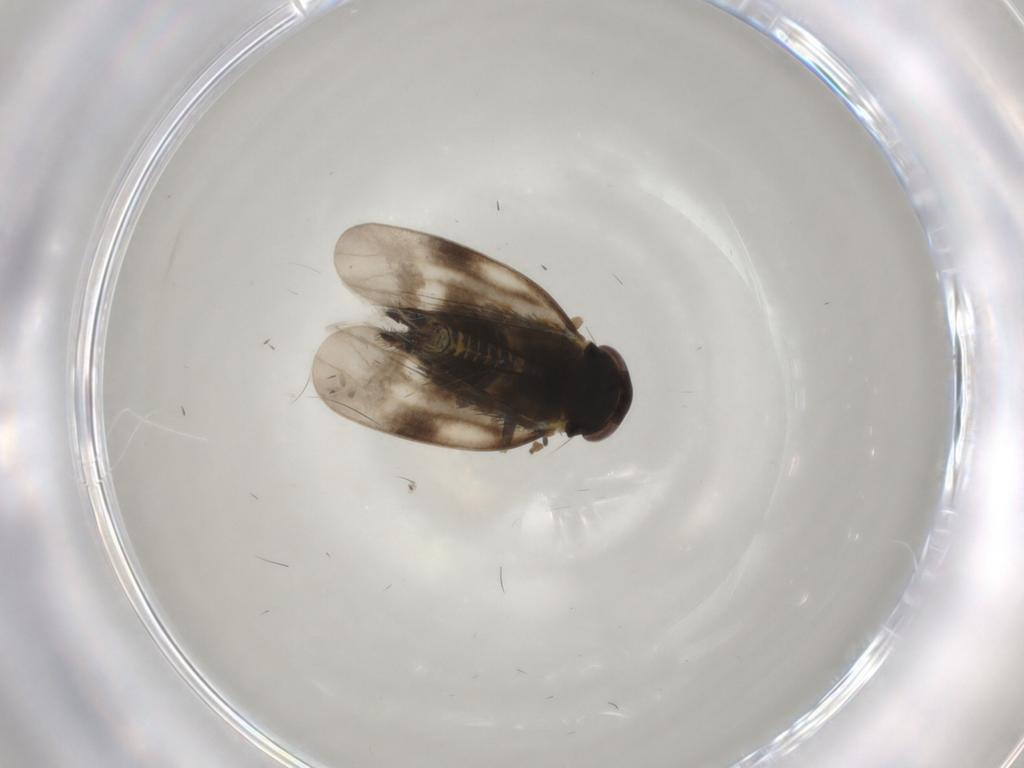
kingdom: Animalia
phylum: Arthropoda
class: Insecta
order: Hemiptera
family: Cicadellidae
